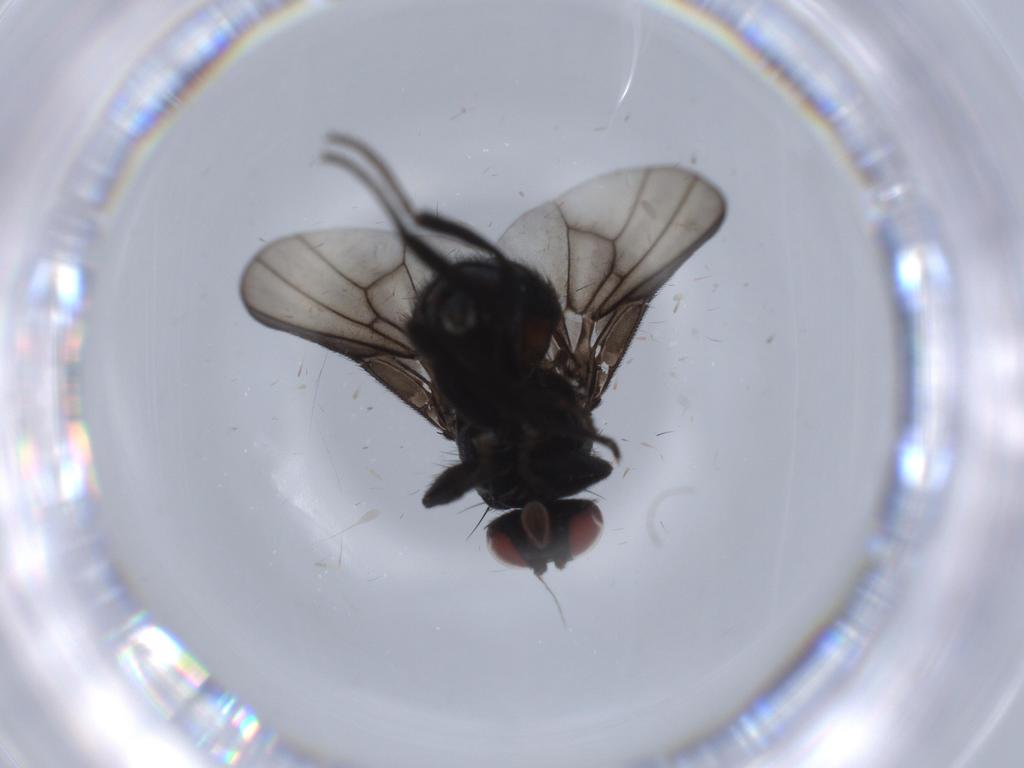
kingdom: Animalia
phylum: Arthropoda
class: Insecta
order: Diptera
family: Agromyzidae
